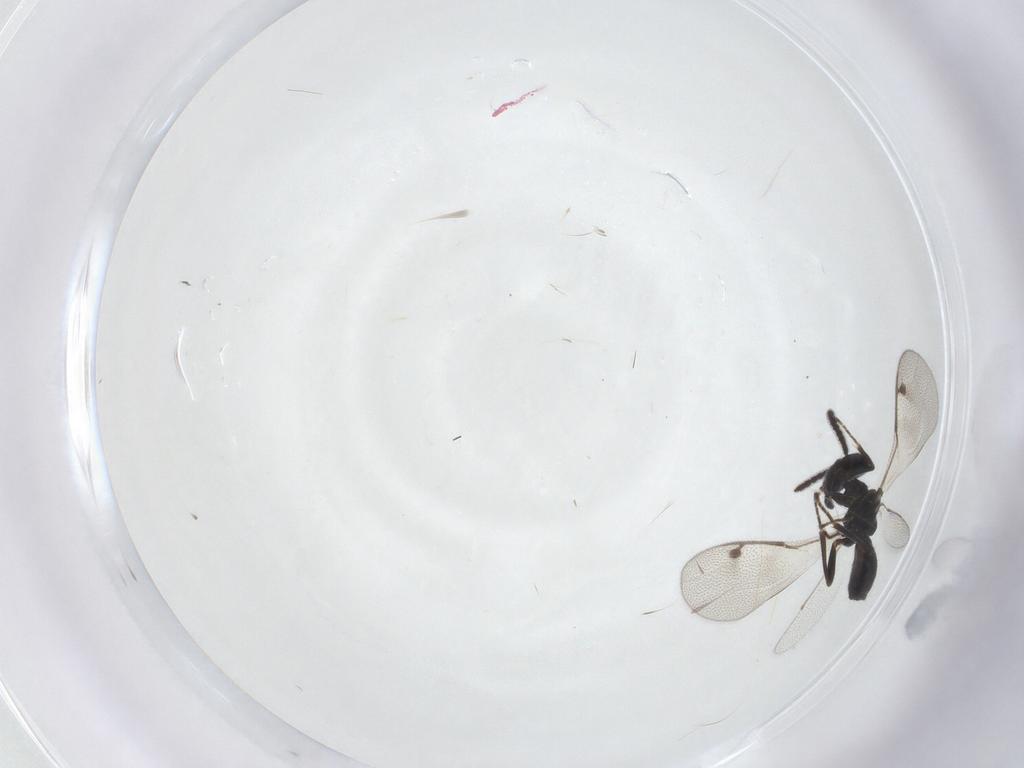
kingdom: Animalia
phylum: Arthropoda
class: Insecta
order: Hymenoptera
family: Pteromalidae
